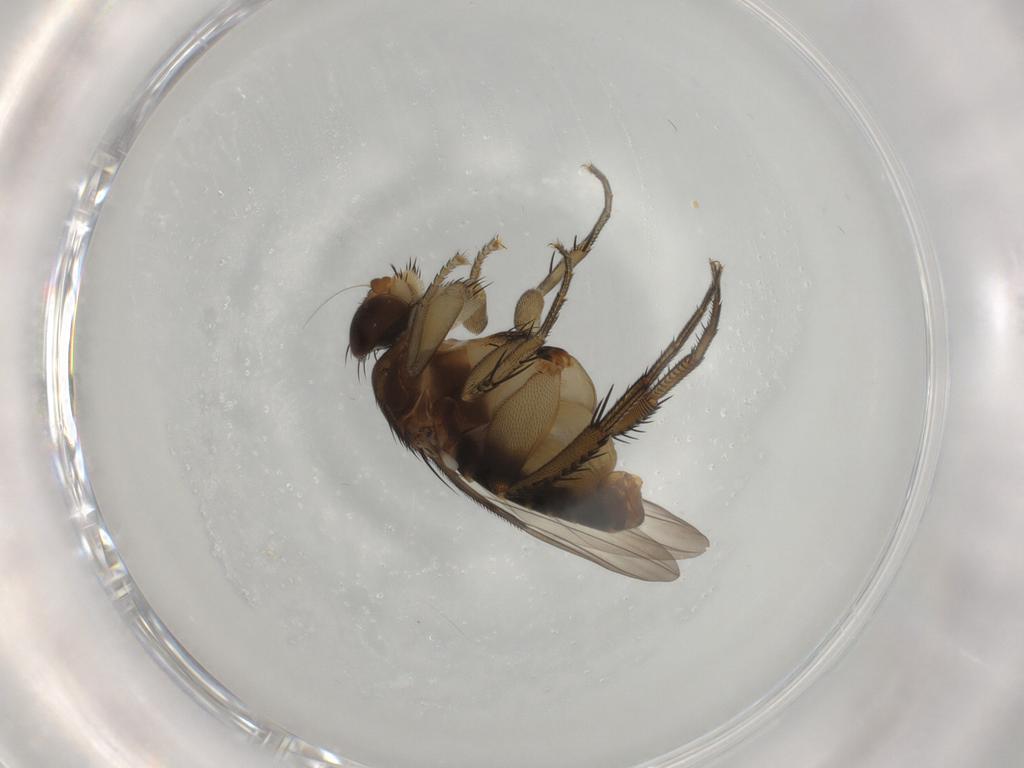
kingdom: Animalia
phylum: Arthropoda
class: Insecta
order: Diptera
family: Phoridae
